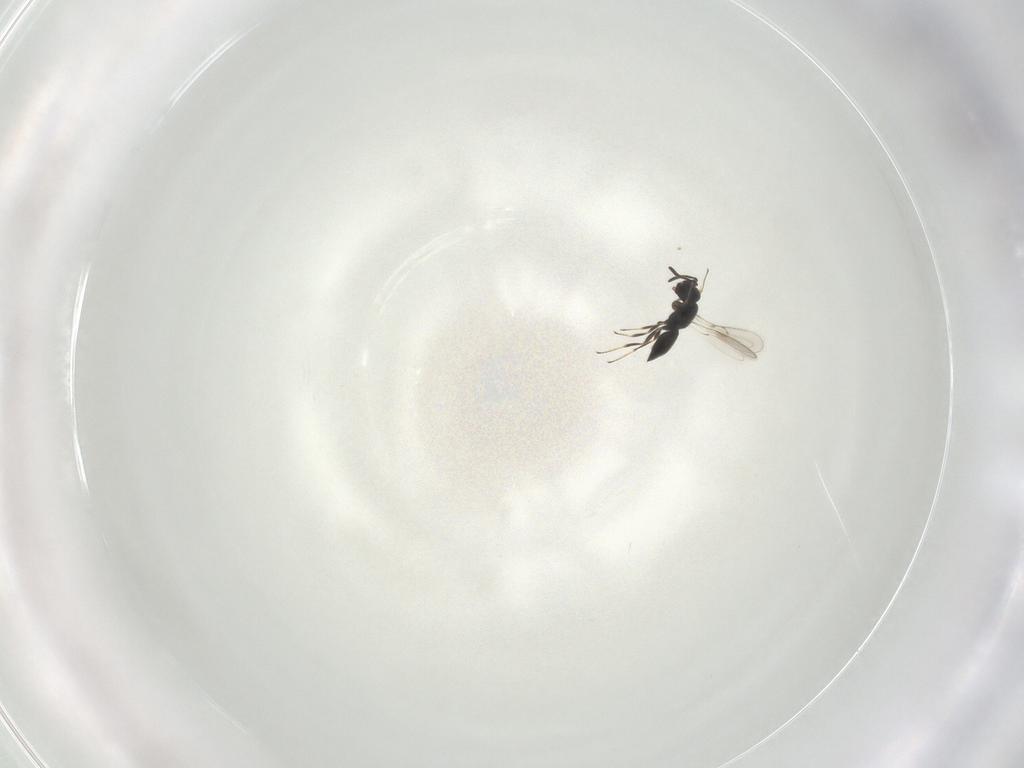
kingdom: Animalia
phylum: Arthropoda
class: Insecta
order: Hymenoptera
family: Scelionidae
